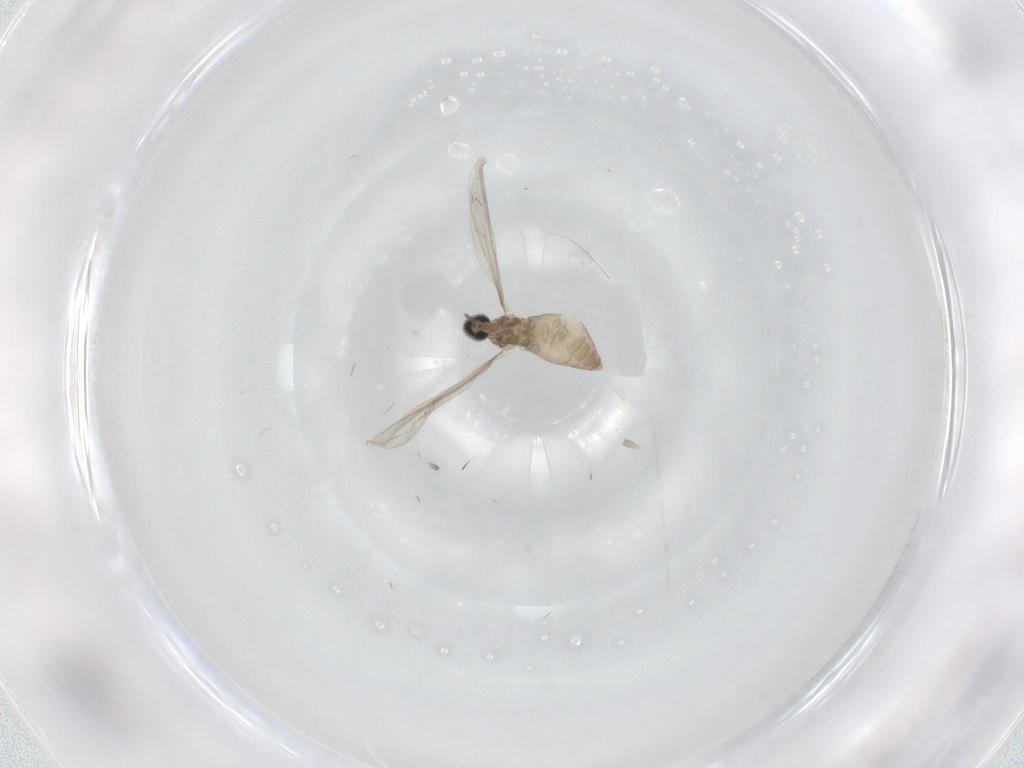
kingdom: Animalia
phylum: Arthropoda
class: Insecta
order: Diptera
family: Cecidomyiidae
